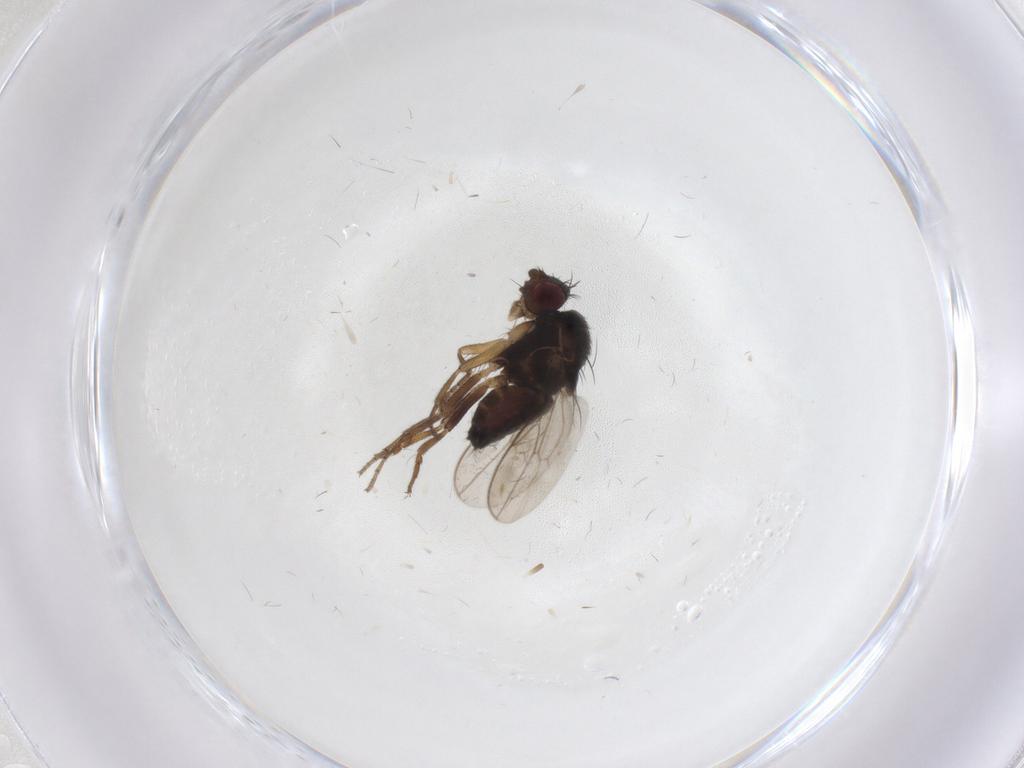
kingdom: Animalia
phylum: Arthropoda
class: Insecta
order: Diptera
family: Sphaeroceridae
